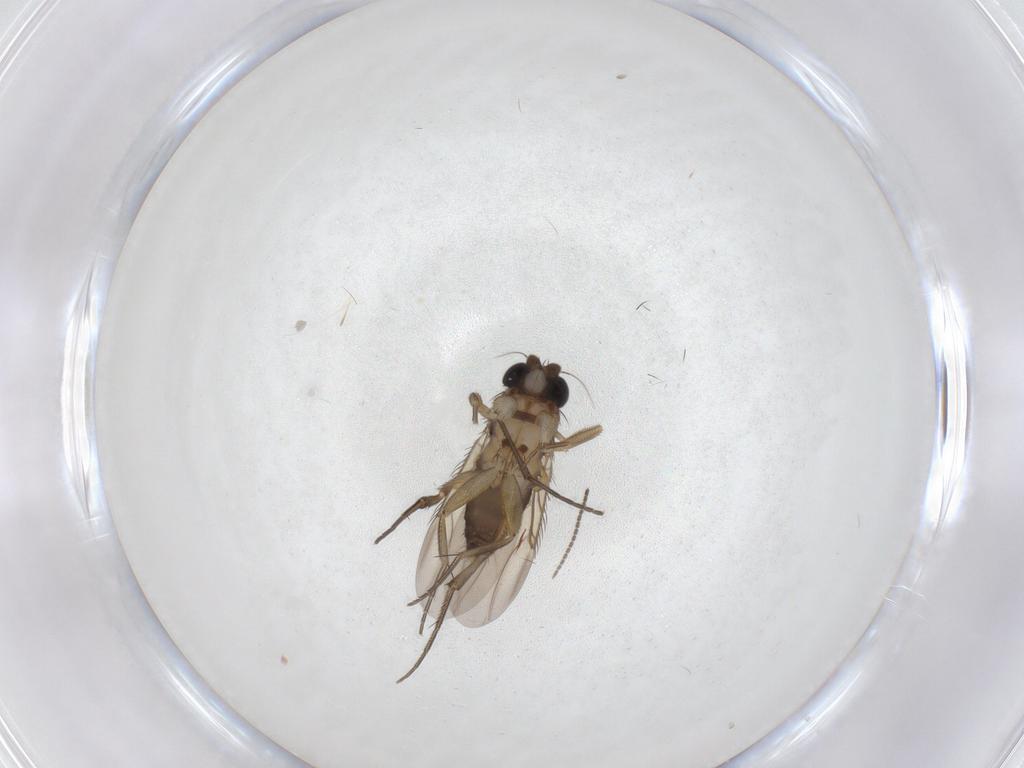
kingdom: Animalia
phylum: Arthropoda
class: Insecta
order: Diptera
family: Phoridae
